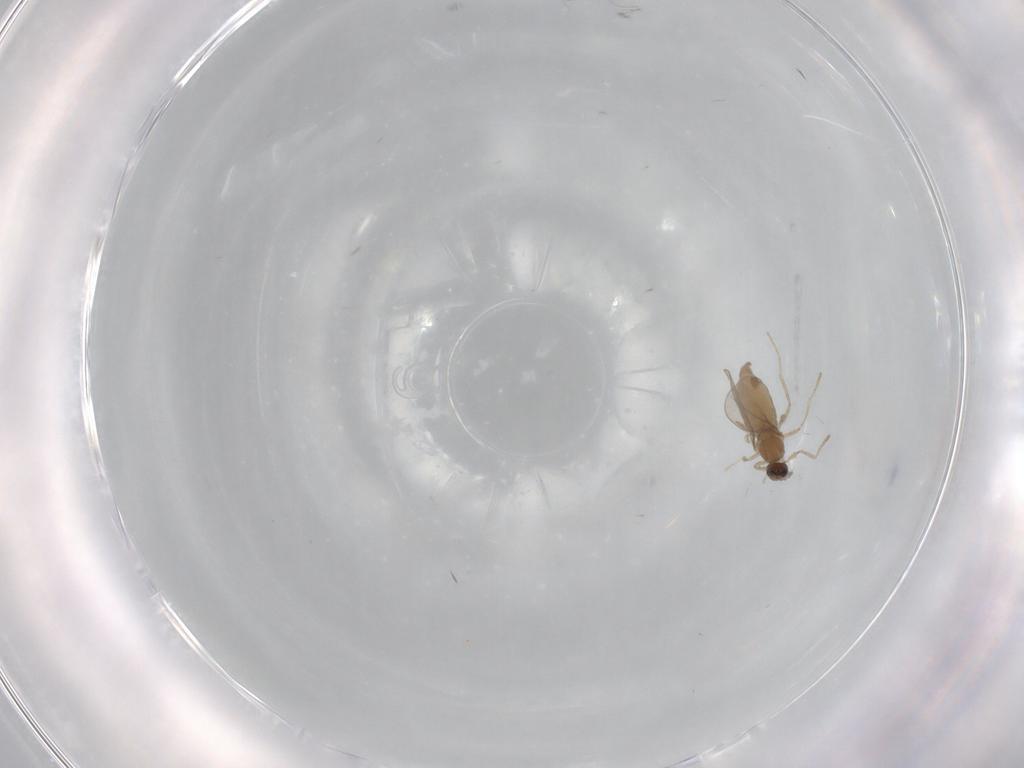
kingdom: Animalia
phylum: Arthropoda
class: Insecta
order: Diptera
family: Cecidomyiidae
